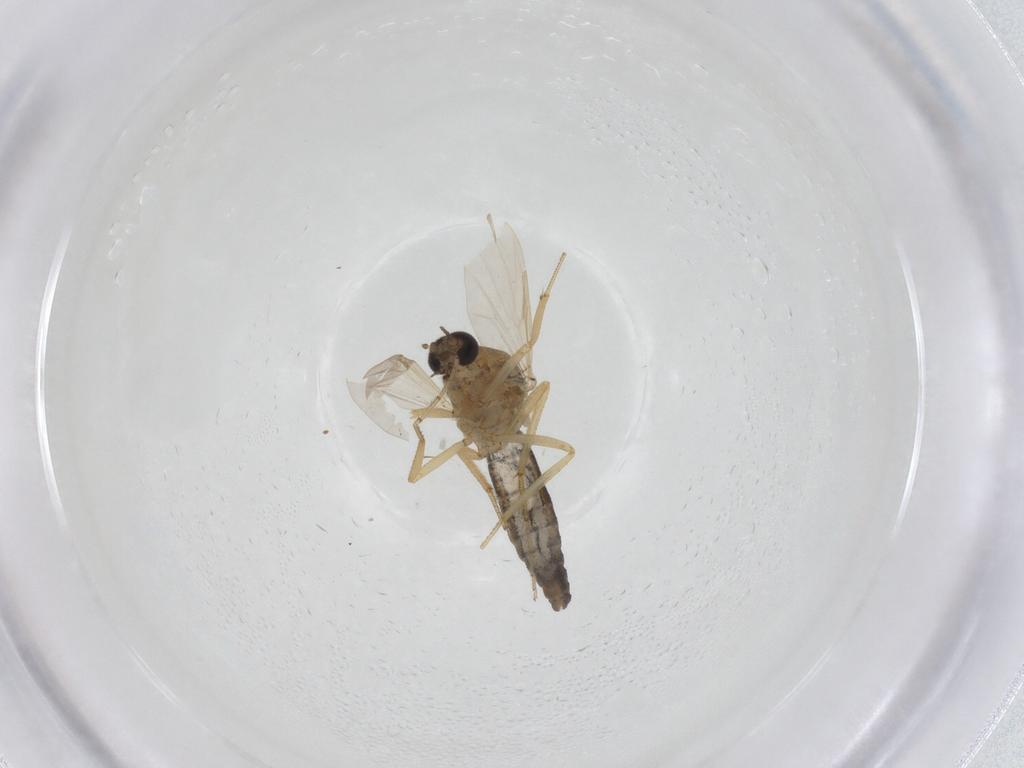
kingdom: Animalia
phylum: Arthropoda
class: Insecta
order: Diptera
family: Cecidomyiidae
